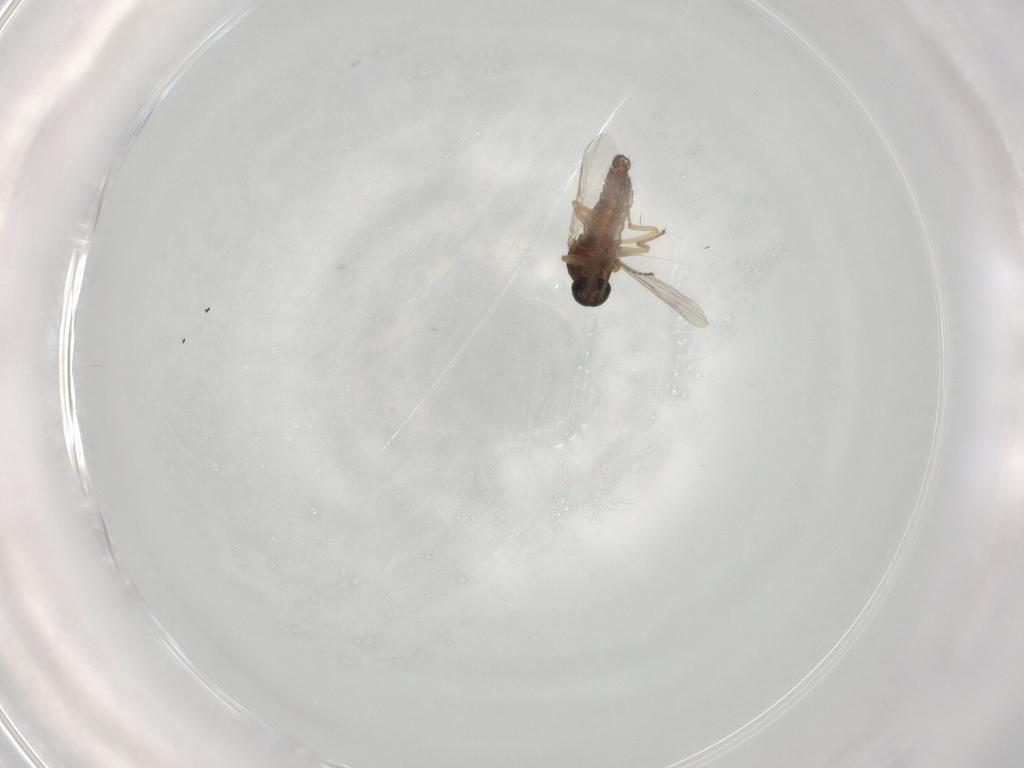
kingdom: Animalia
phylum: Arthropoda
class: Insecta
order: Diptera
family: Ceratopogonidae
